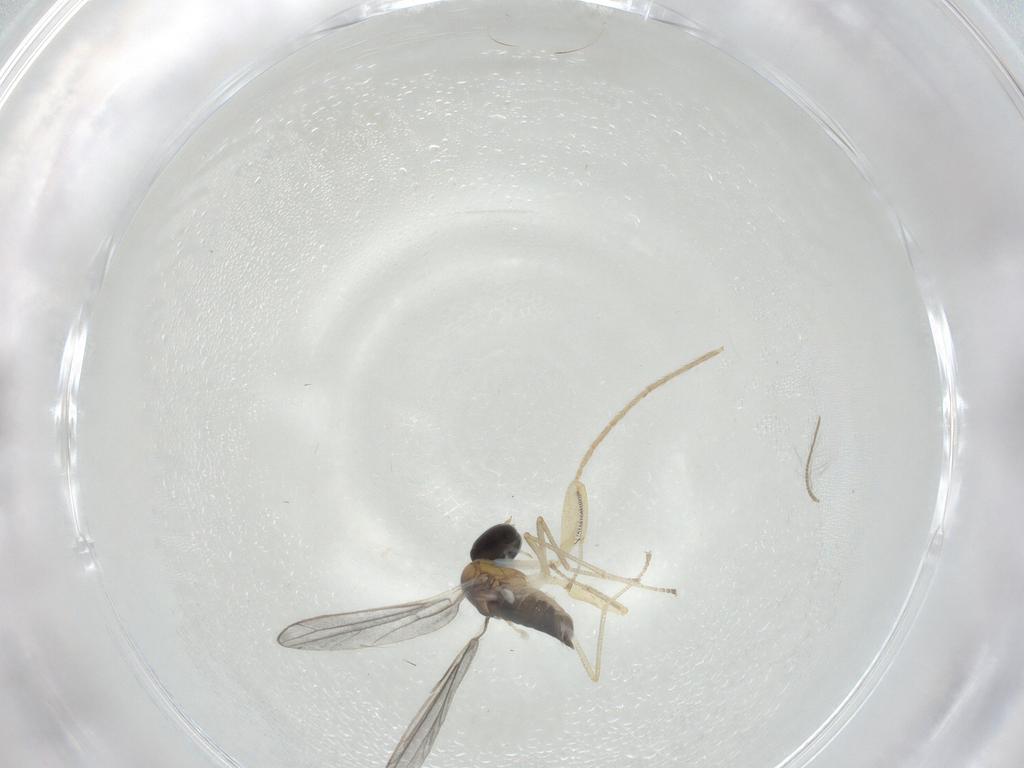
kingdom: Animalia
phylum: Arthropoda
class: Insecta
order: Diptera
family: Empididae
